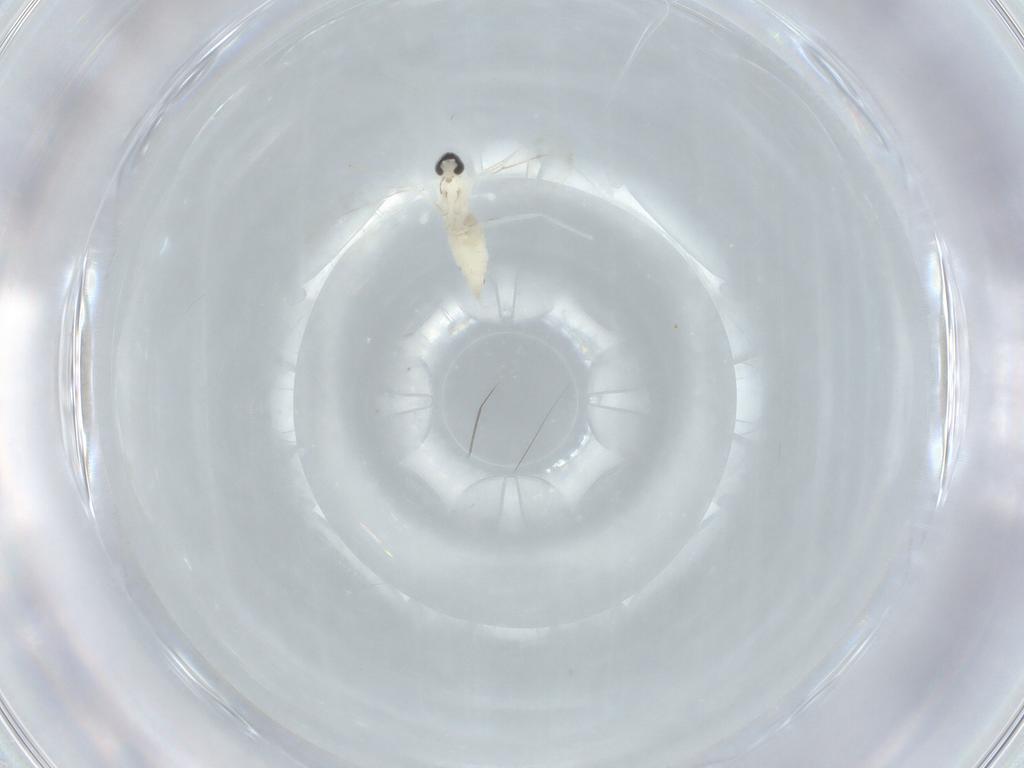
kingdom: Animalia
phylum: Arthropoda
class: Insecta
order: Diptera
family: Cecidomyiidae
